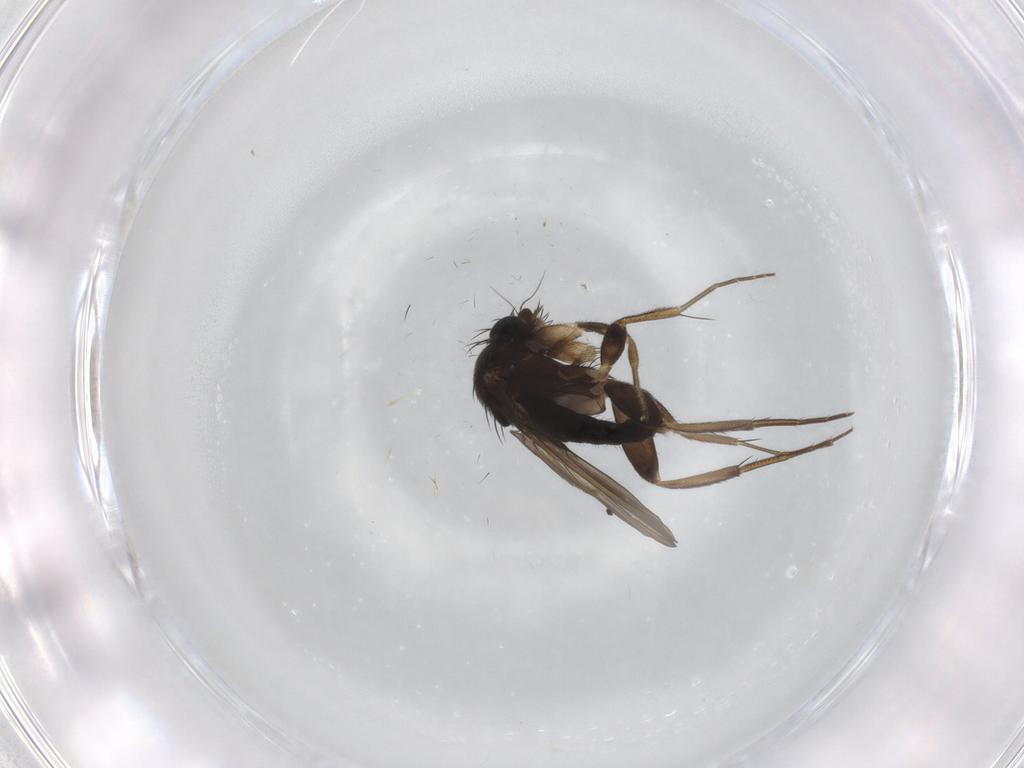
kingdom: Animalia
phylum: Arthropoda
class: Insecta
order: Diptera
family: Phoridae
